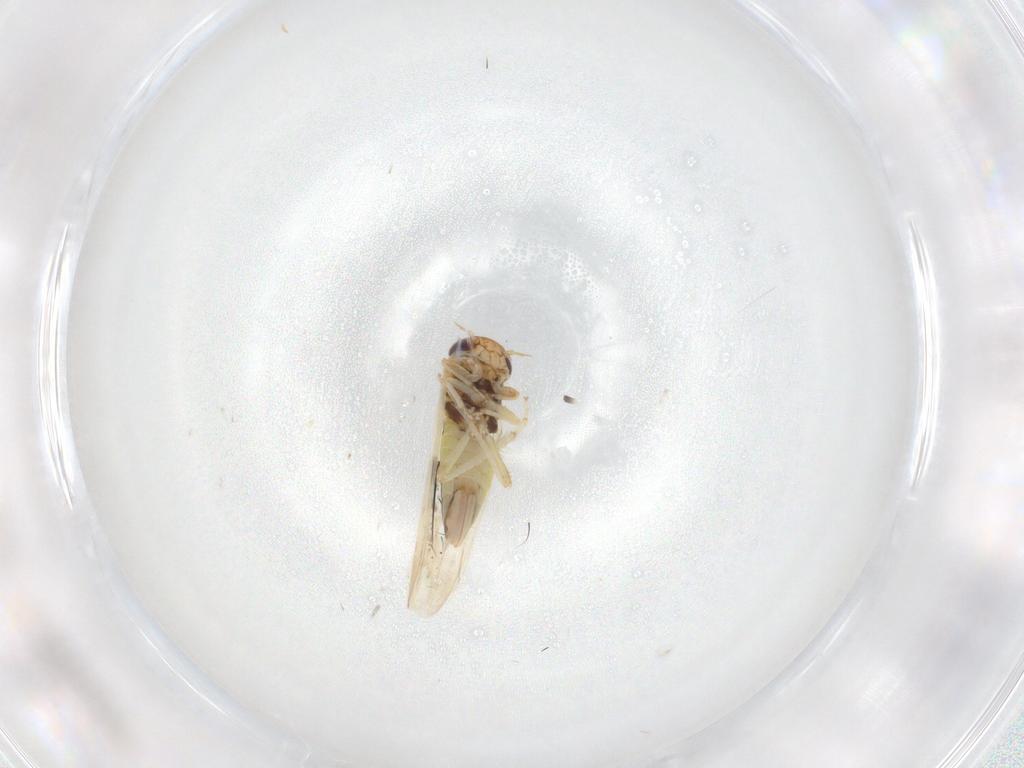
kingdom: Animalia
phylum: Arthropoda
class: Insecta
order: Hemiptera
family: Cicadellidae
